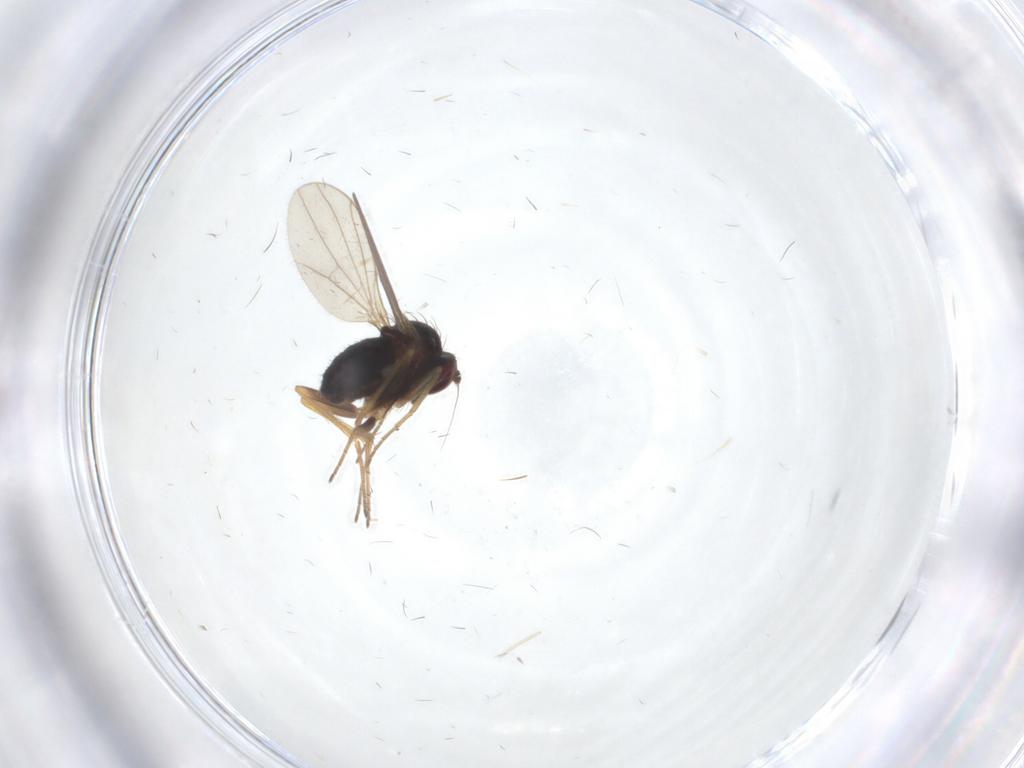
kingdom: Animalia
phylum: Arthropoda
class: Insecta
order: Diptera
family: Dolichopodidae
